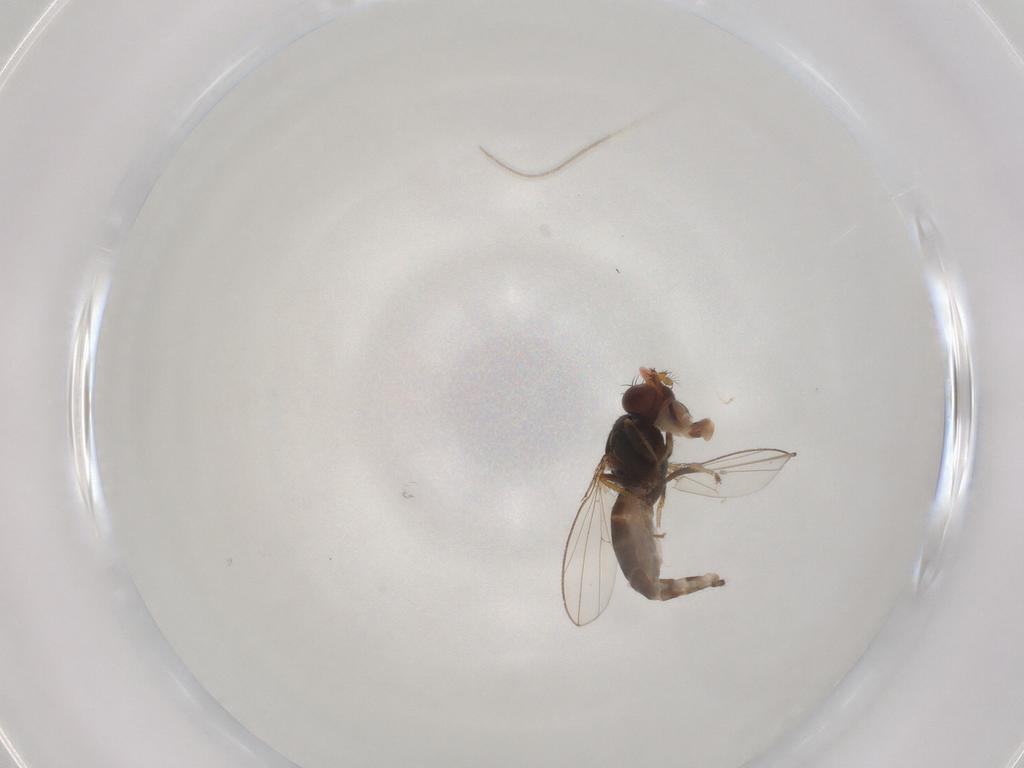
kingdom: Animalia
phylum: Arthropoda
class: Insecta
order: Diptera
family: Ephydridae
